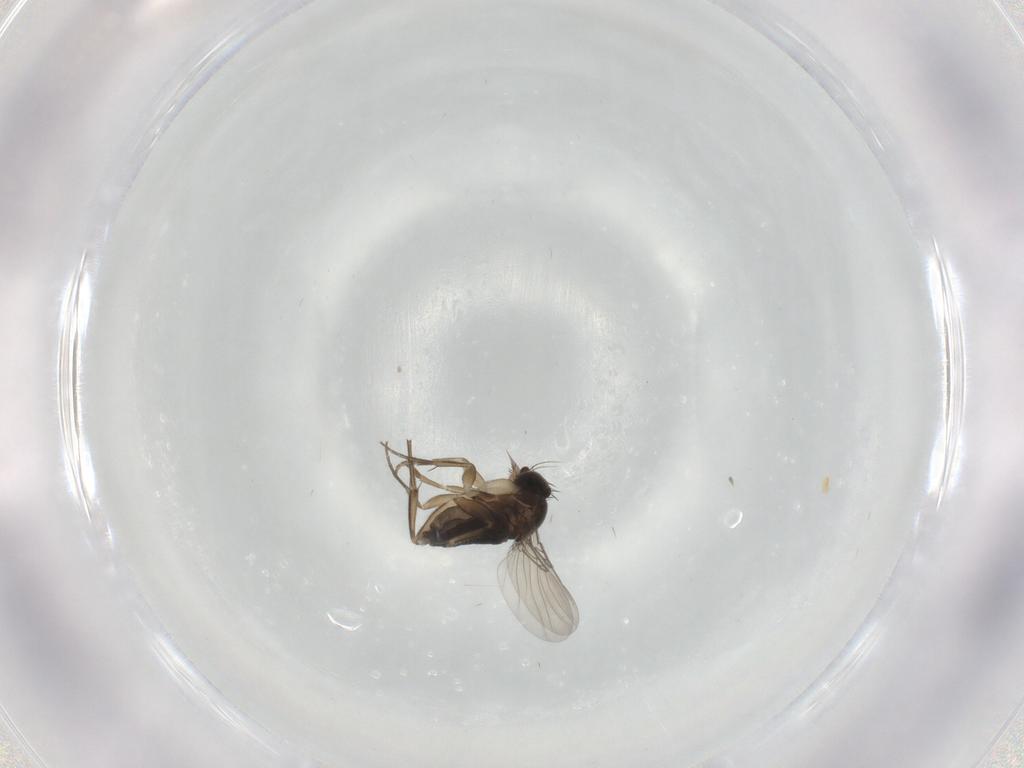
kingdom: Animalia
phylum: Arthropoda
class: Insecta
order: Diptera
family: Phoridae
